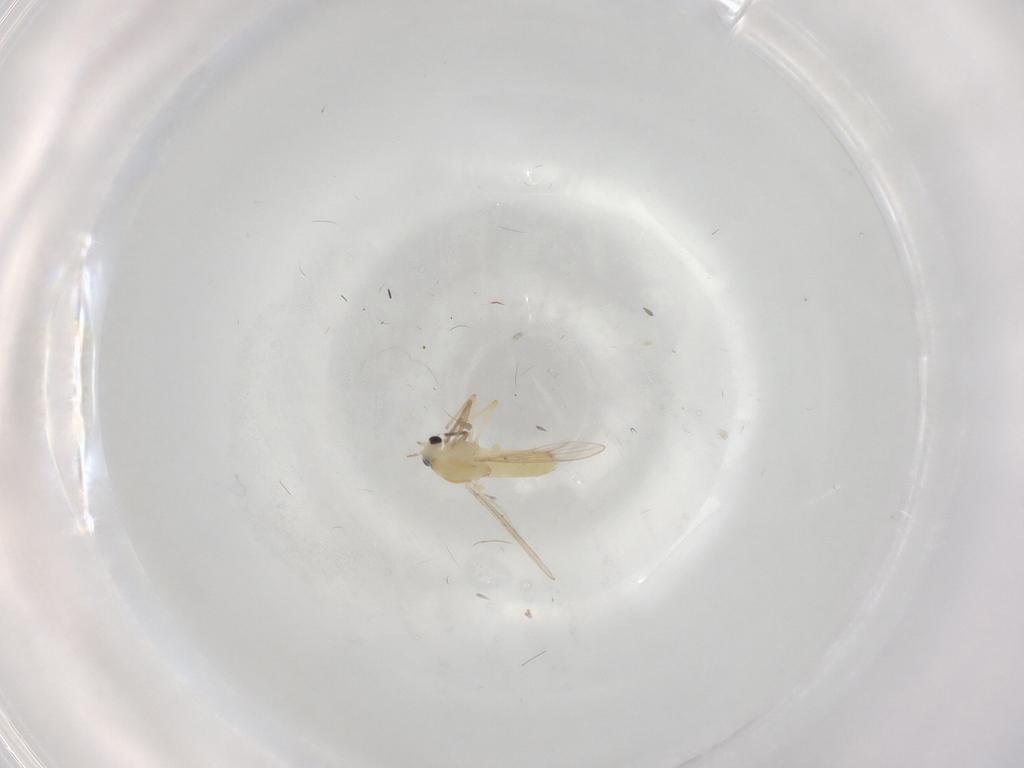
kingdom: Animalia
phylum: Arthropoda
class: Insecta
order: Diptera
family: Chironomidae
